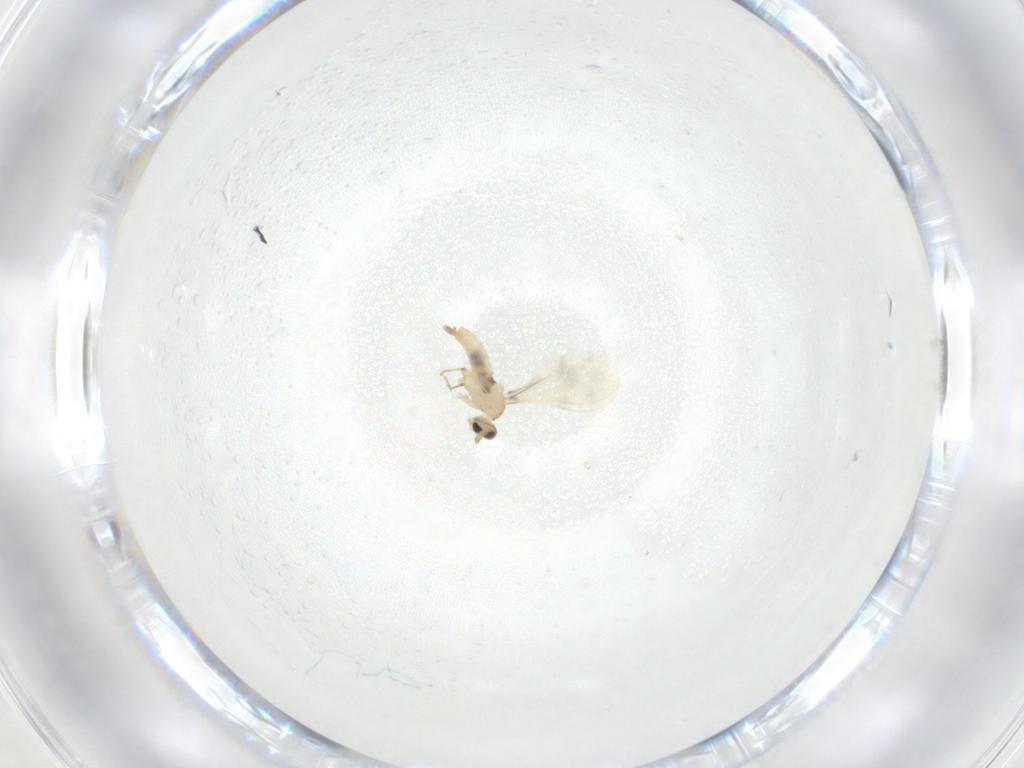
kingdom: Animalia
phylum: Arthropoda
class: Insecta
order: Diptera
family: Cecidomyiidae
